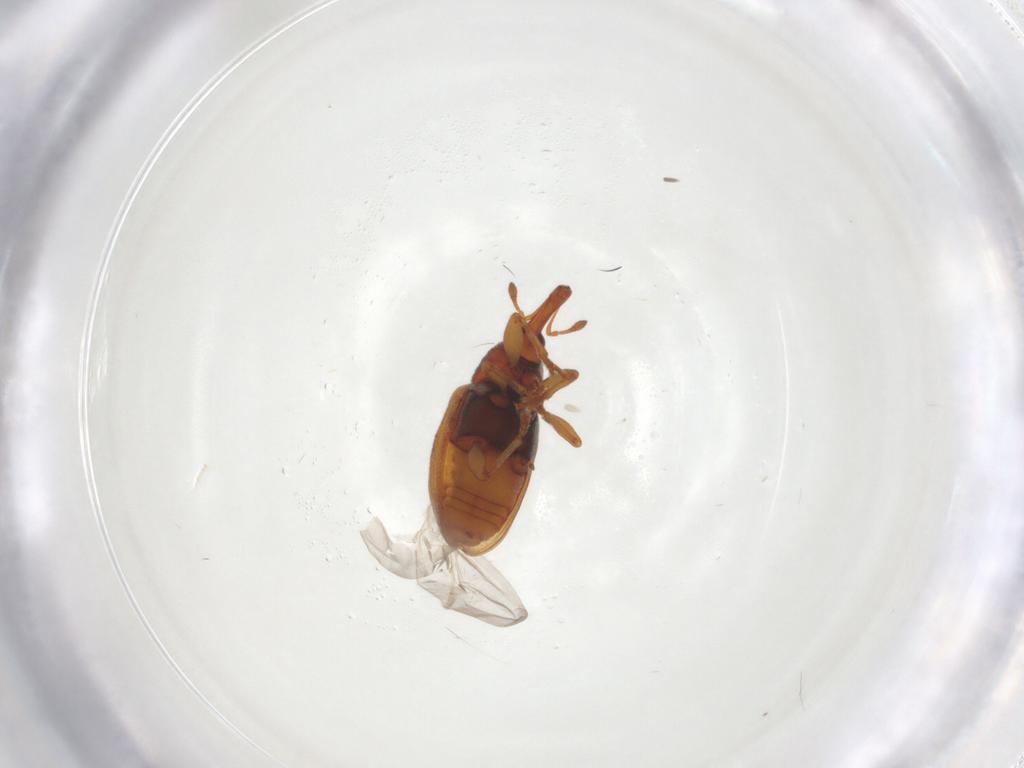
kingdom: Animalia
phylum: Arthropoda
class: Insecta
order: Coleoptera
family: Curculionidae
